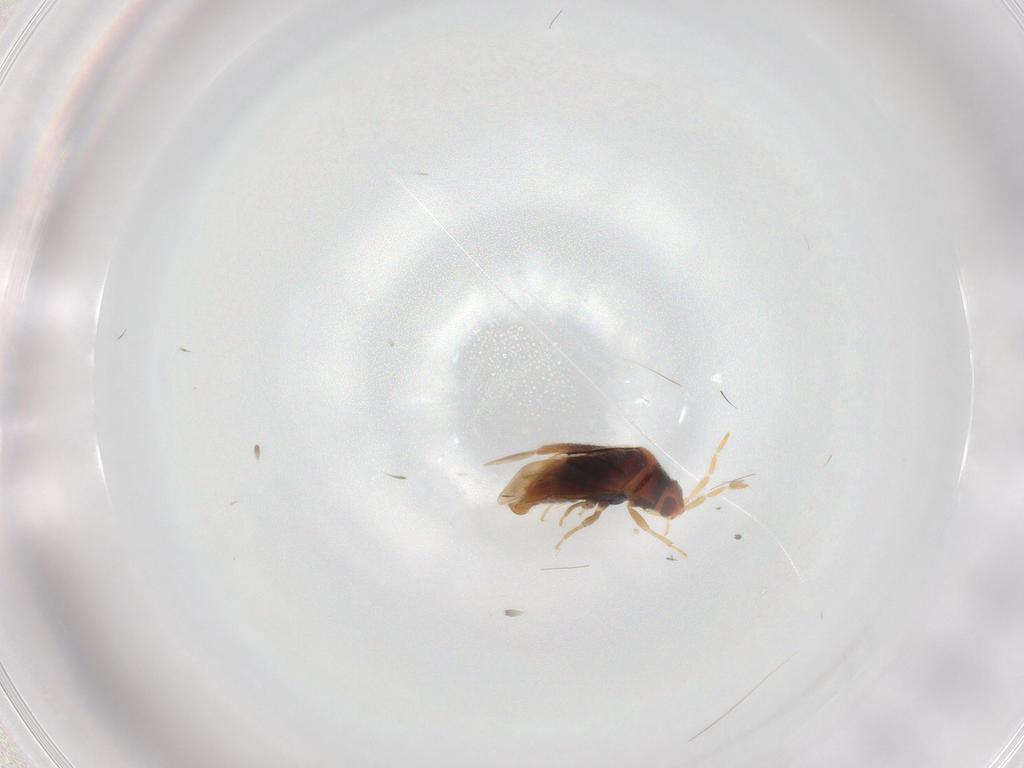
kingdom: Animalia
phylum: Arthropoda
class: Insecta
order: Hemiptera
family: Anthocoridae
